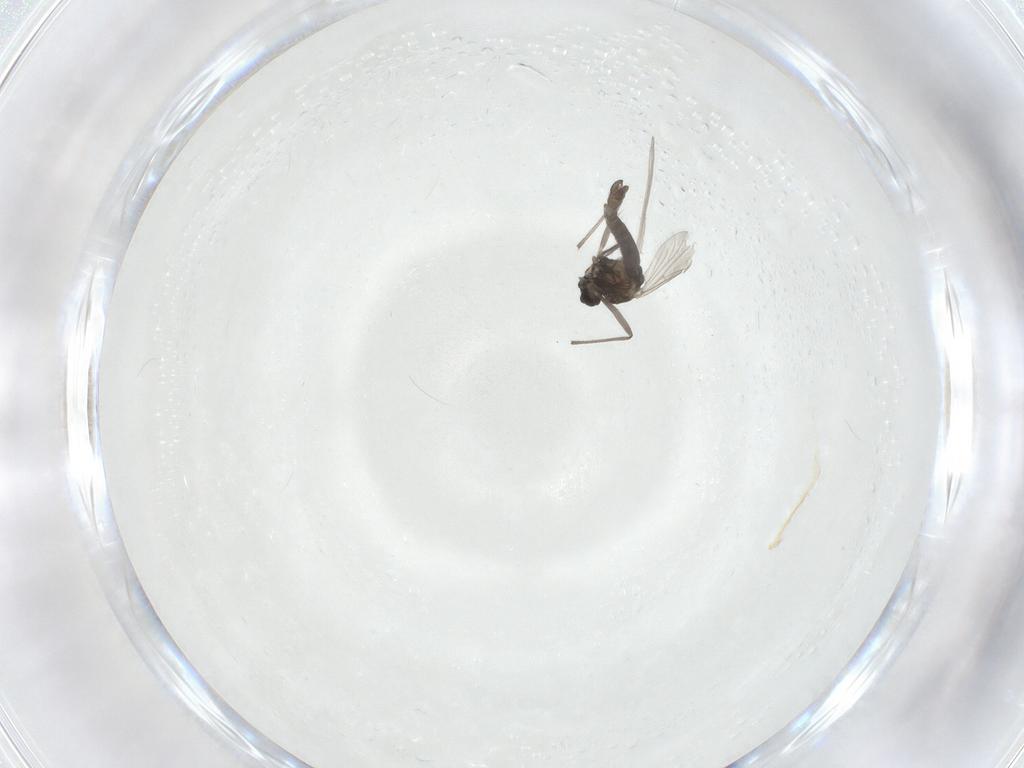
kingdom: Animalia
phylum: Arthropoda
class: Insecta
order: Diptera
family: Chironomidae
